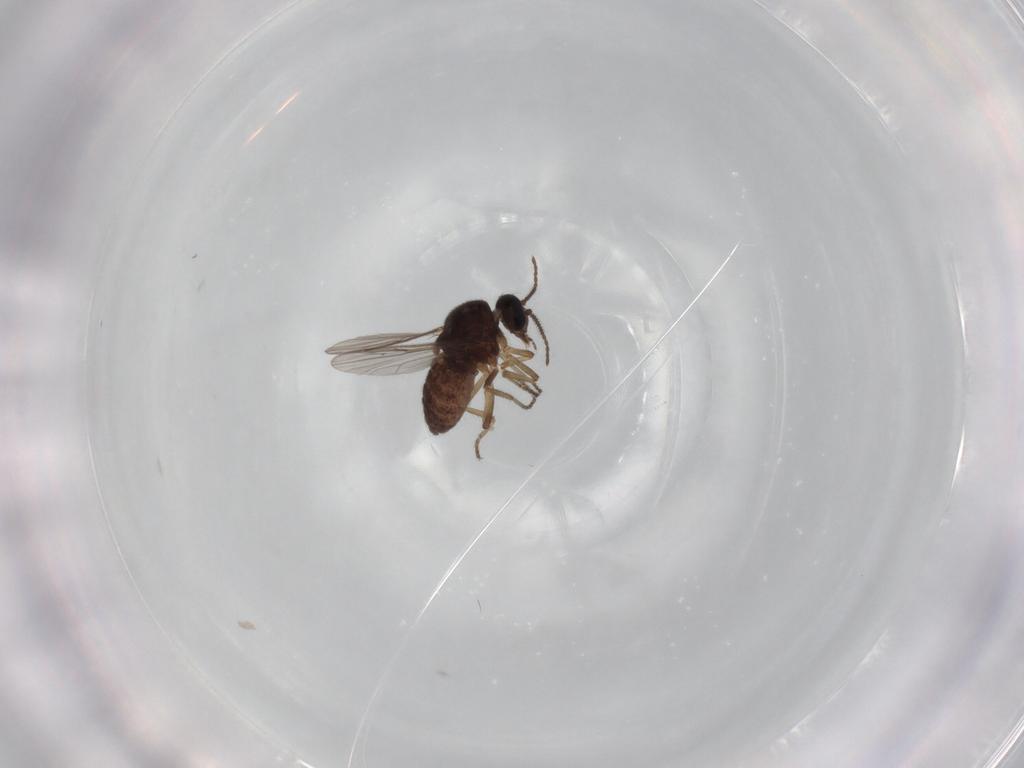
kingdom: Animalia
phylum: Arthropoda
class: Insecta
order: Diptera
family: Ceratopogonidae
